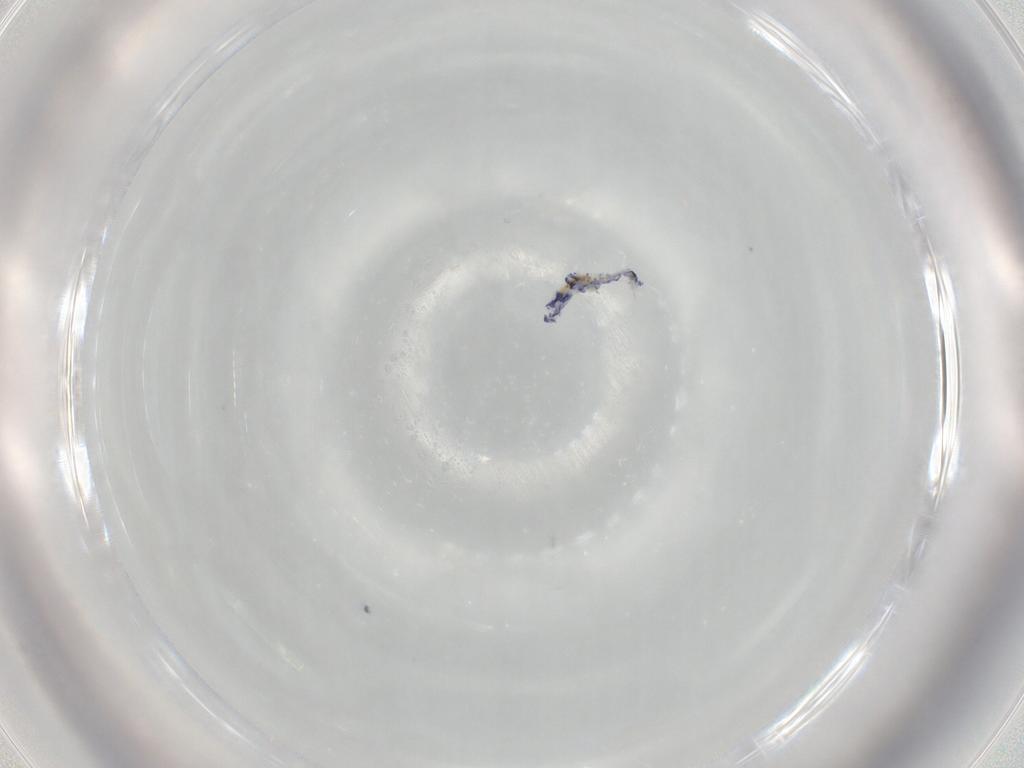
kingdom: Animalia
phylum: Arthropoda
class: Collembola
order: Entomobryomorpha
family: Entomobryidae
